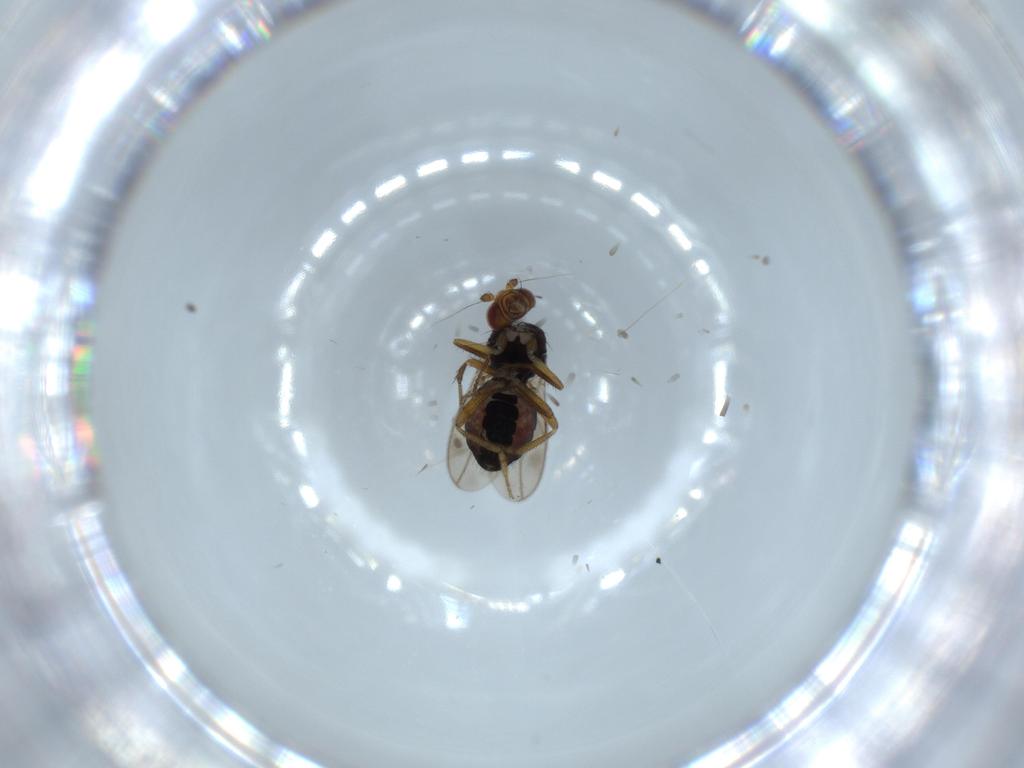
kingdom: Animalia
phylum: Arthropoda
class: Insecta
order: Diptera
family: Sphaeroceridae
